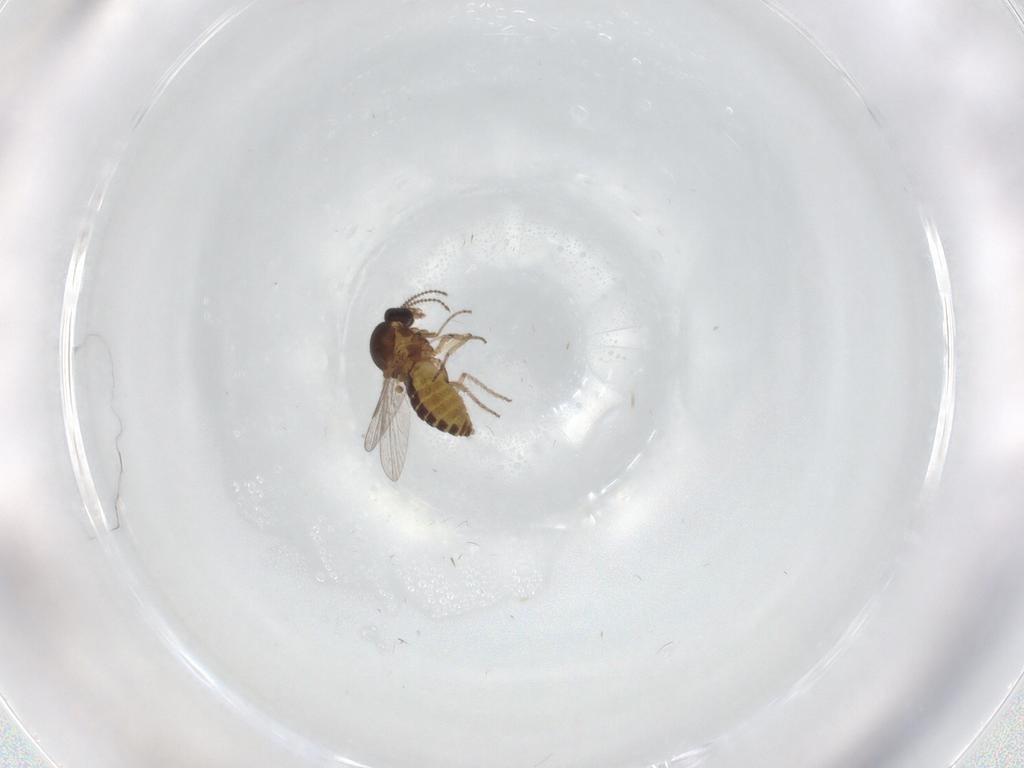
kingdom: Animalia
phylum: Arthropoda
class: Insecta
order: Diptera
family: Ceratopogonidae
